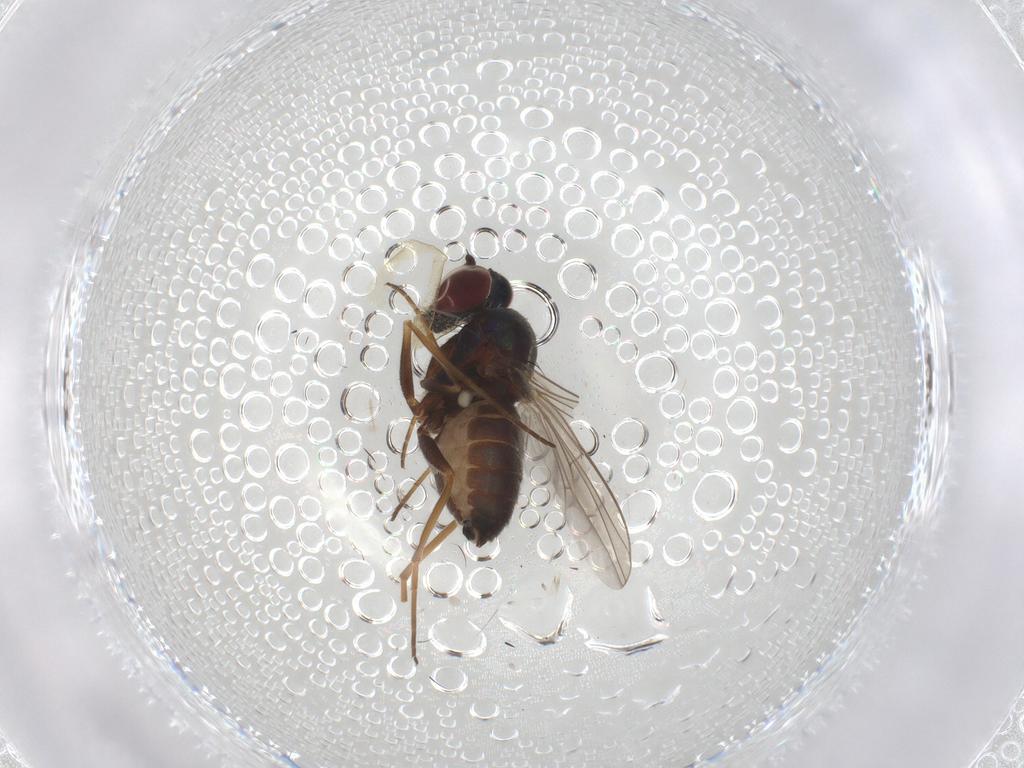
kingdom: Animalia
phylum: Arthropoda
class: Insecta
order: Diptera
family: Dolichopodidae
